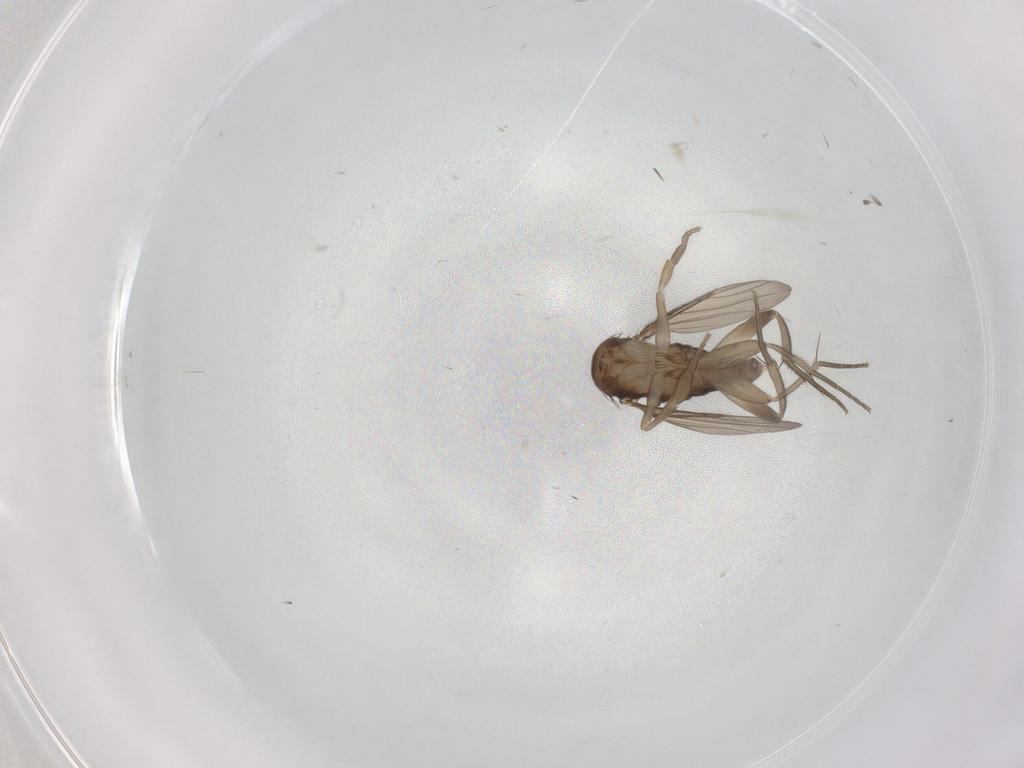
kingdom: Animalia
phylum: Arthropoda
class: Insecta
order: Diptera
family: Phoridae
